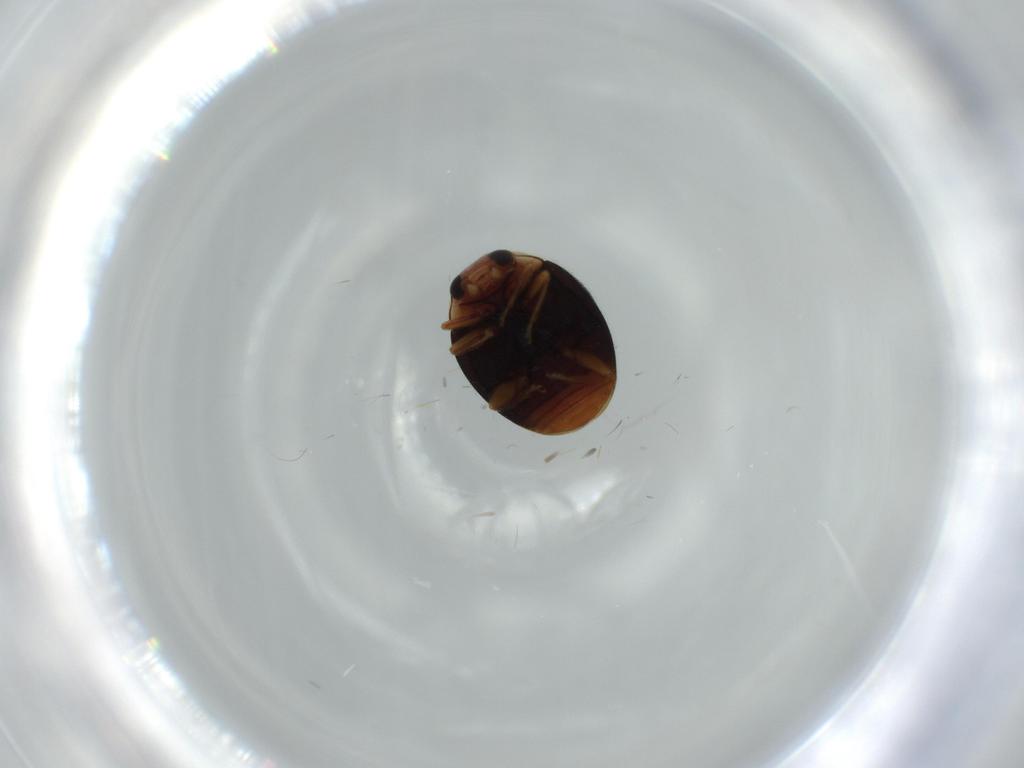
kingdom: Animalia
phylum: Arthropoda
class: Insecta
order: Coleoptera
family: Coccinellidae
